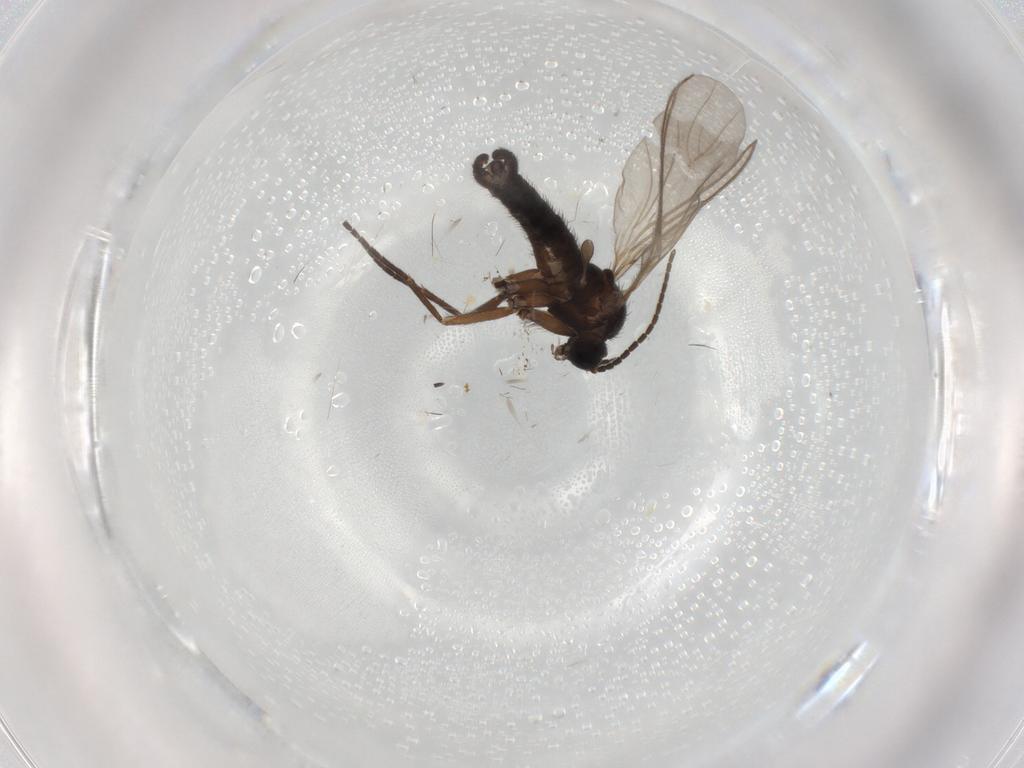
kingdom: Animalia
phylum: Arthropoda
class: Insecta
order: Diptera
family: Sciaridae
